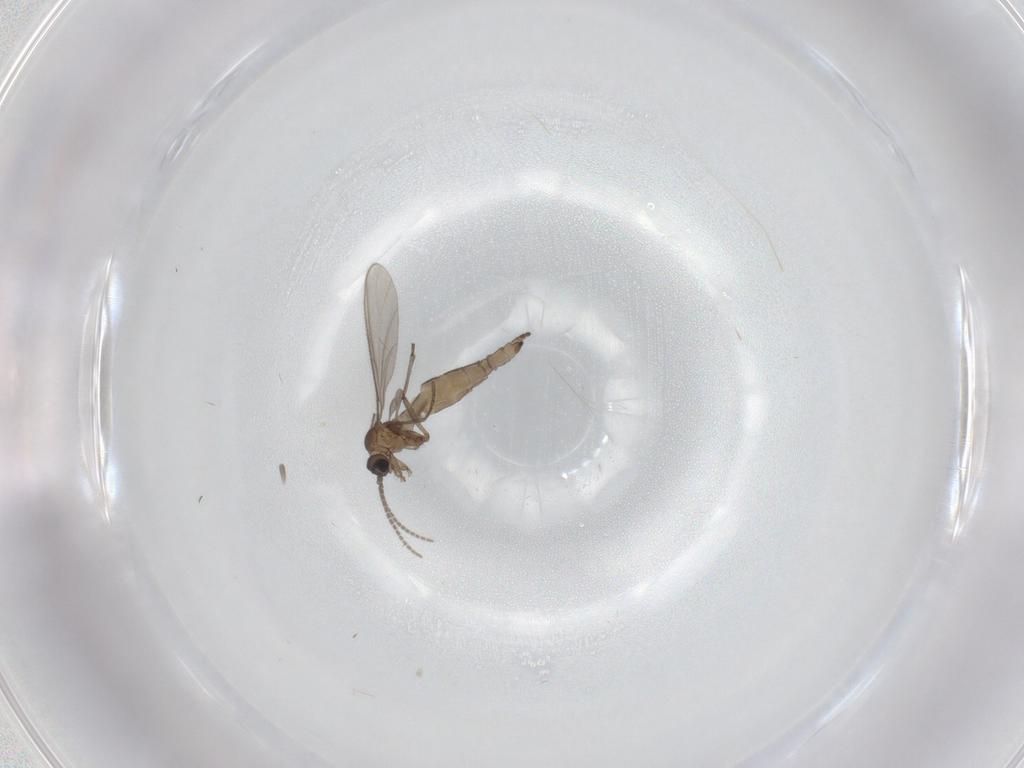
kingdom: Animalia
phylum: Arthropoda
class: Insecta
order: Diptera
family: Sciaridae
